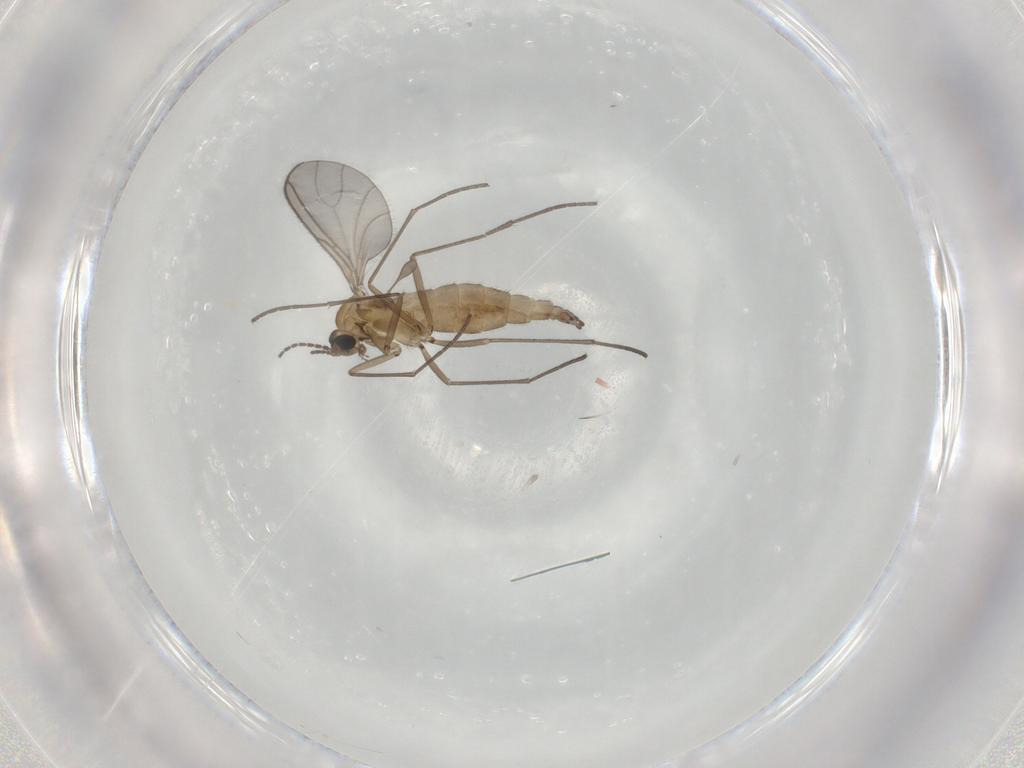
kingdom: Animalia
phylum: Arthropoda
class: Insecta
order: Diptera
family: Sciaridae
